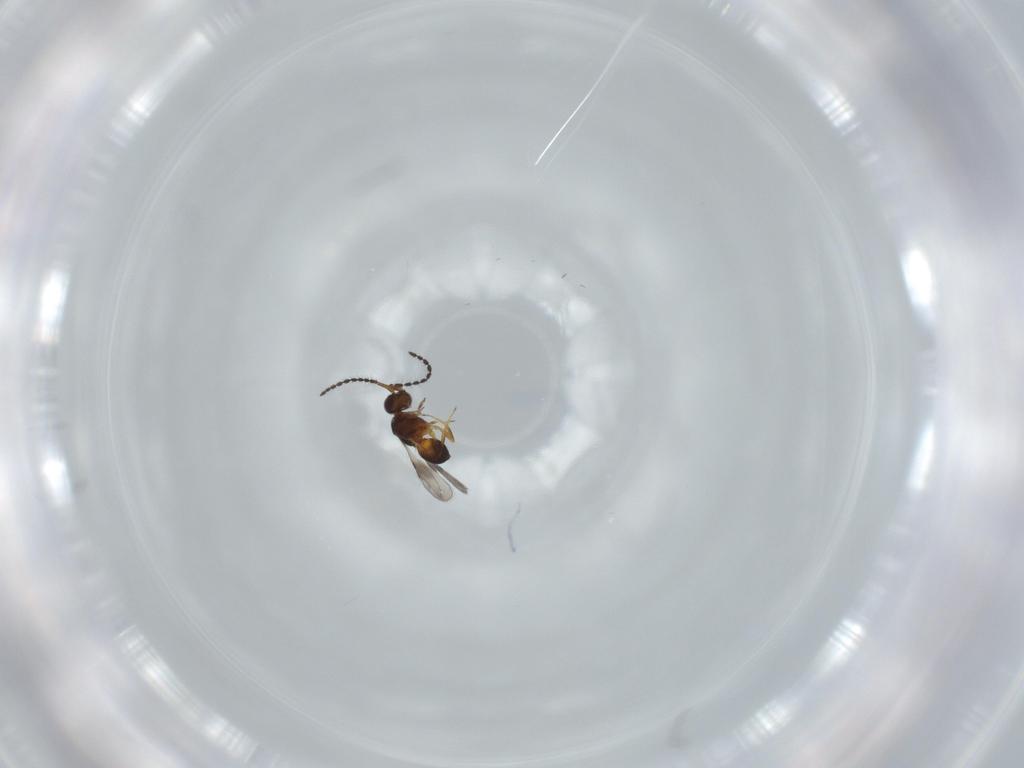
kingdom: Animalia
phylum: Arthropoda
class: Insecta
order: Hymenoptera
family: Ceraphronidae
